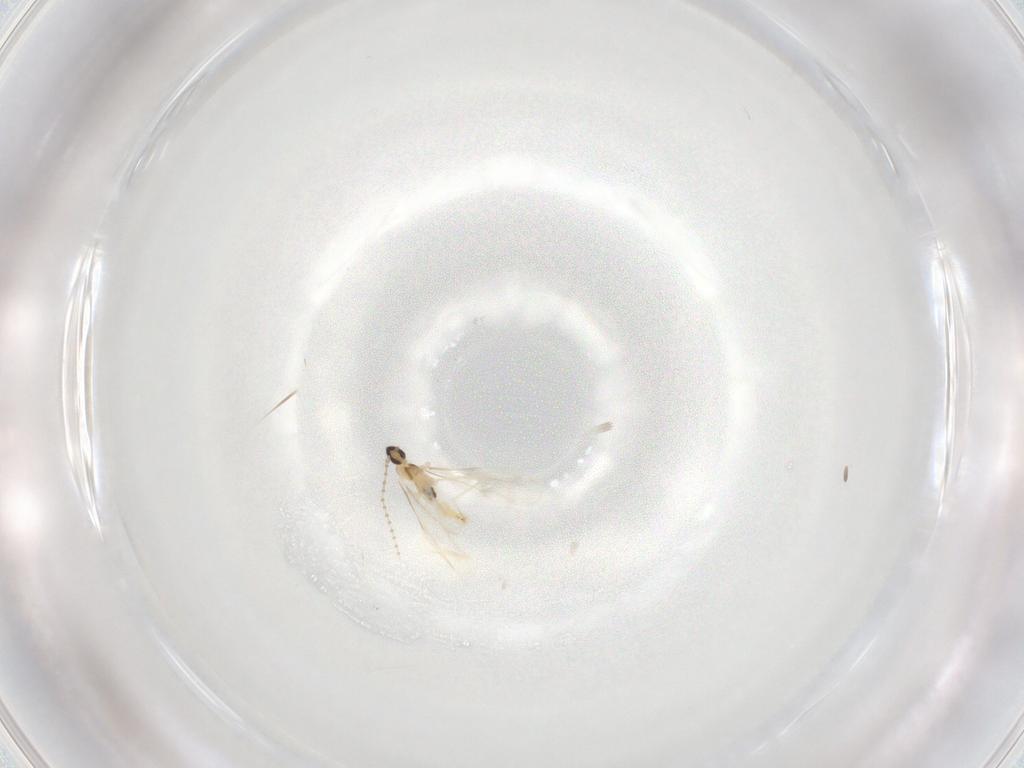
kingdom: Animalia
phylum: Arthropoda
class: Insecta
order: Diptera
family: Cecidomyiidae
